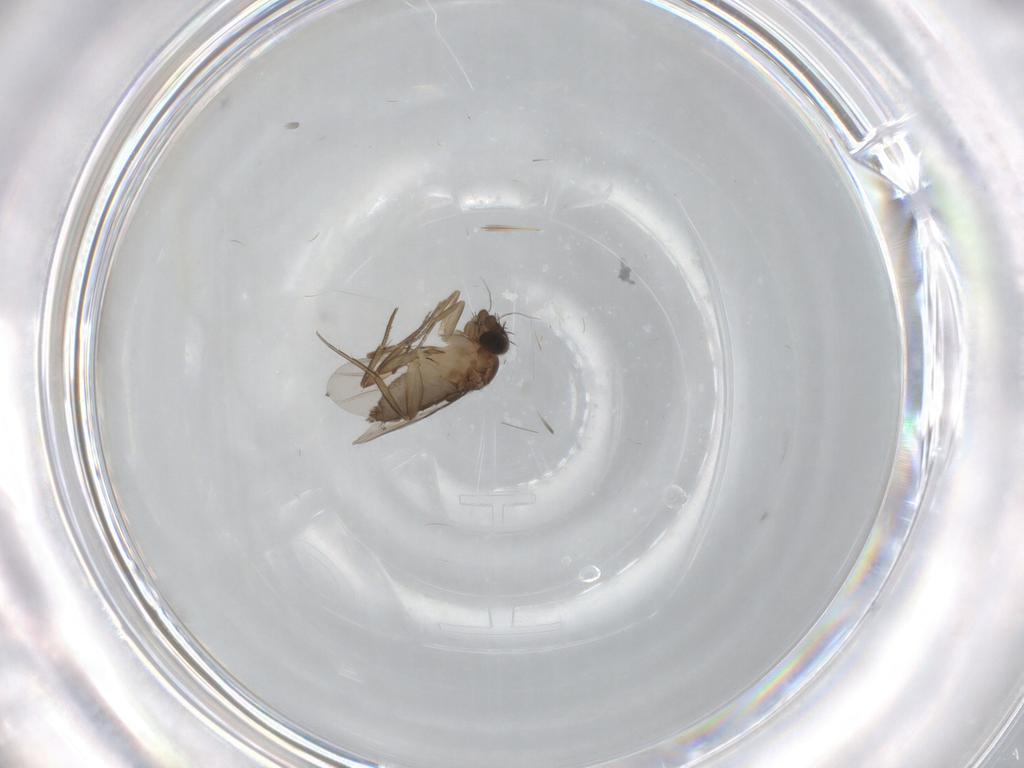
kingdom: Animalia
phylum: Arthropoda
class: Insecta
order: Diptera
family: Phoridae
